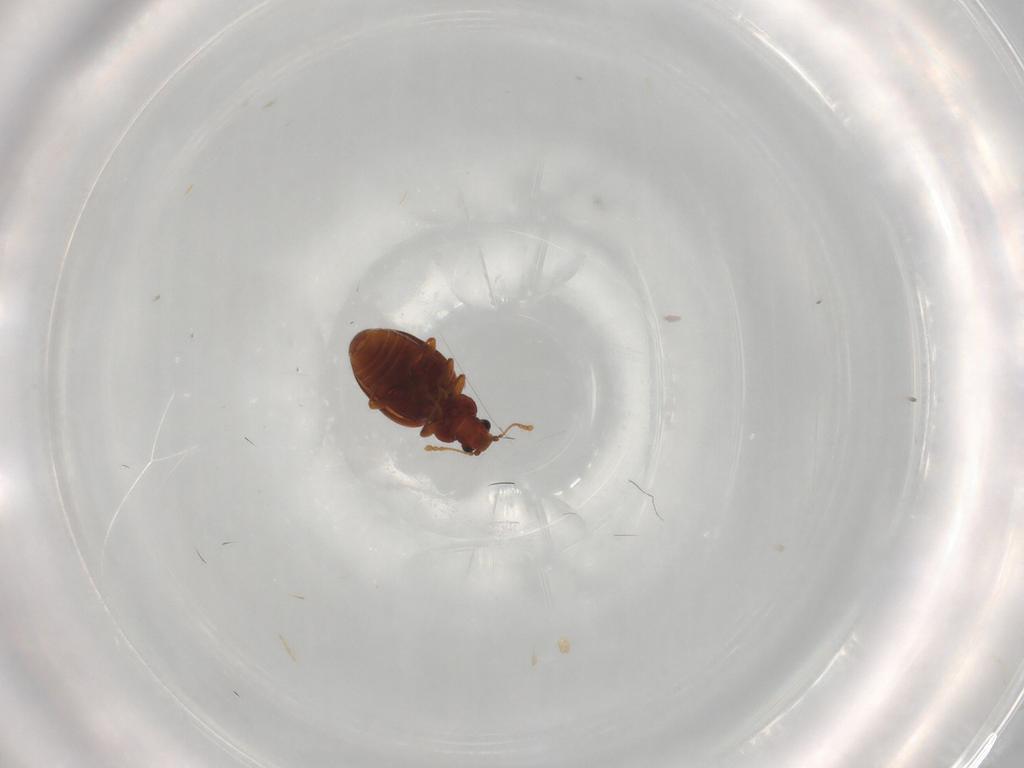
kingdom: Animalia
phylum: Arthropoda
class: Insecta
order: Coleoptera
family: Latridiidae
